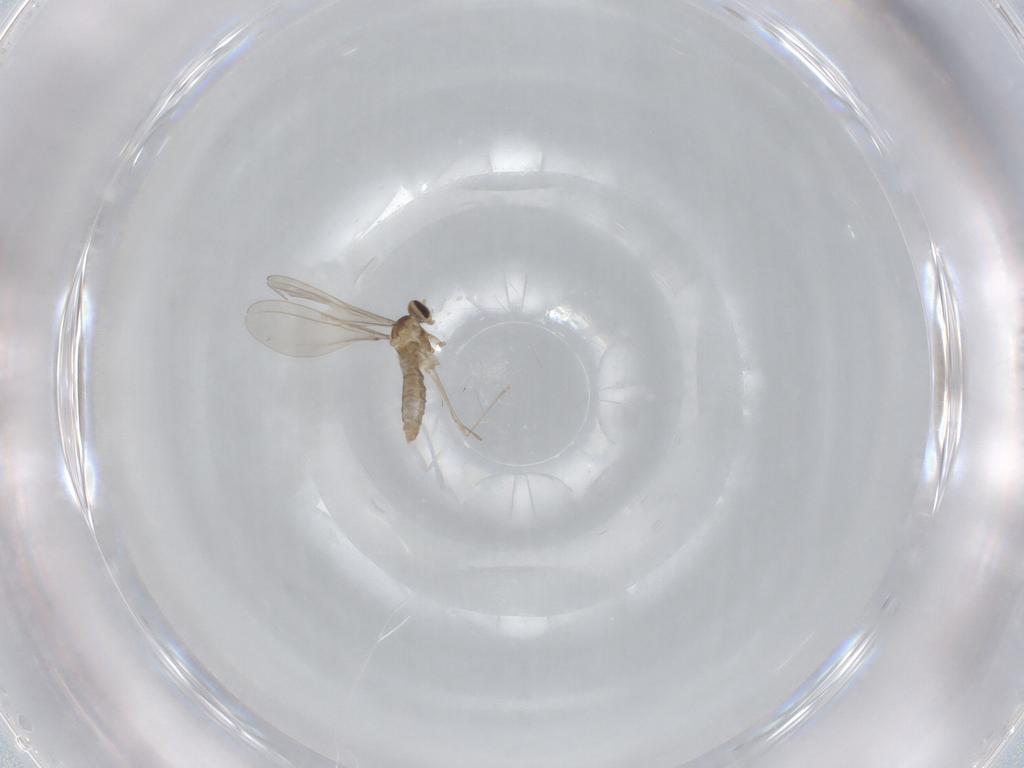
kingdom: Animalia
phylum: Arthropoda
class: Insecta
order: Diptera
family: Cecidomyiidae
